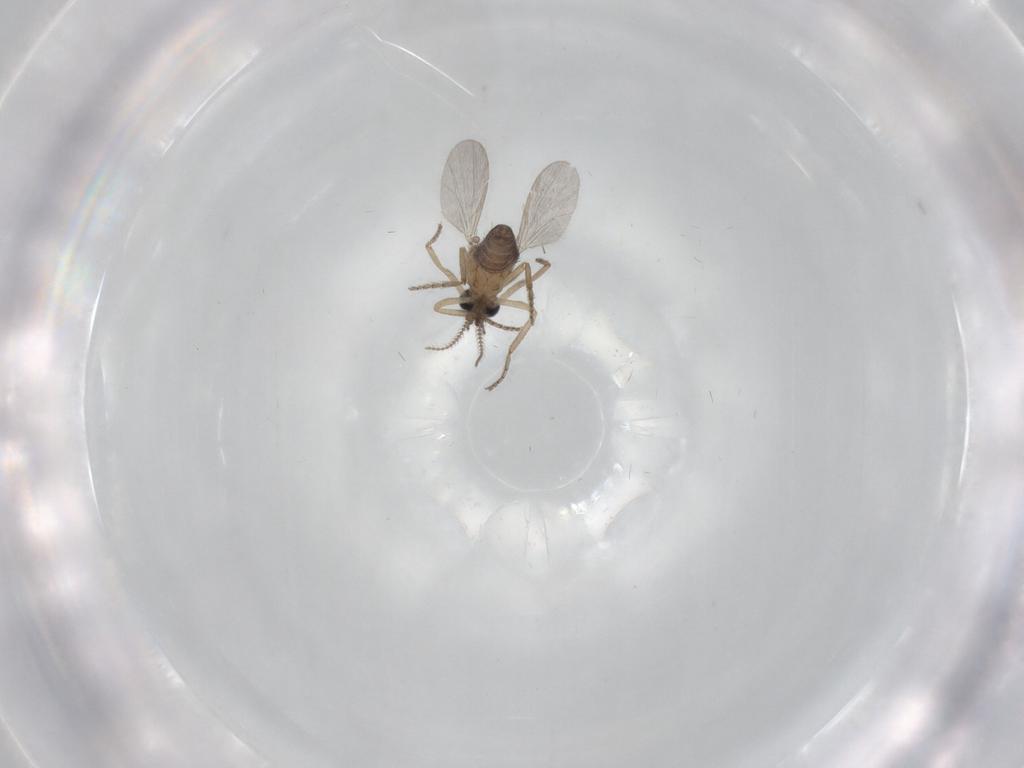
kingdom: Animalia
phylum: Arthropoda
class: Insecta
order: Diptera
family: Ceratopogonidae
